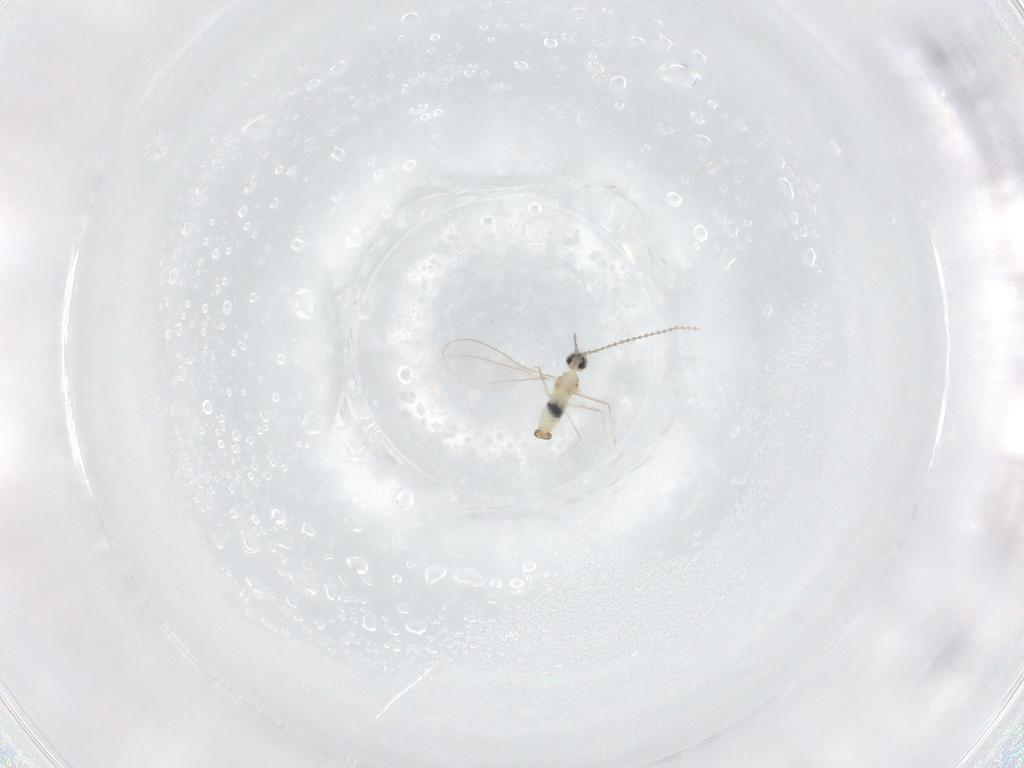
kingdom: Animalia
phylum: Arthropoda
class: Insecta
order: Diptera
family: Cecidomyiidae
